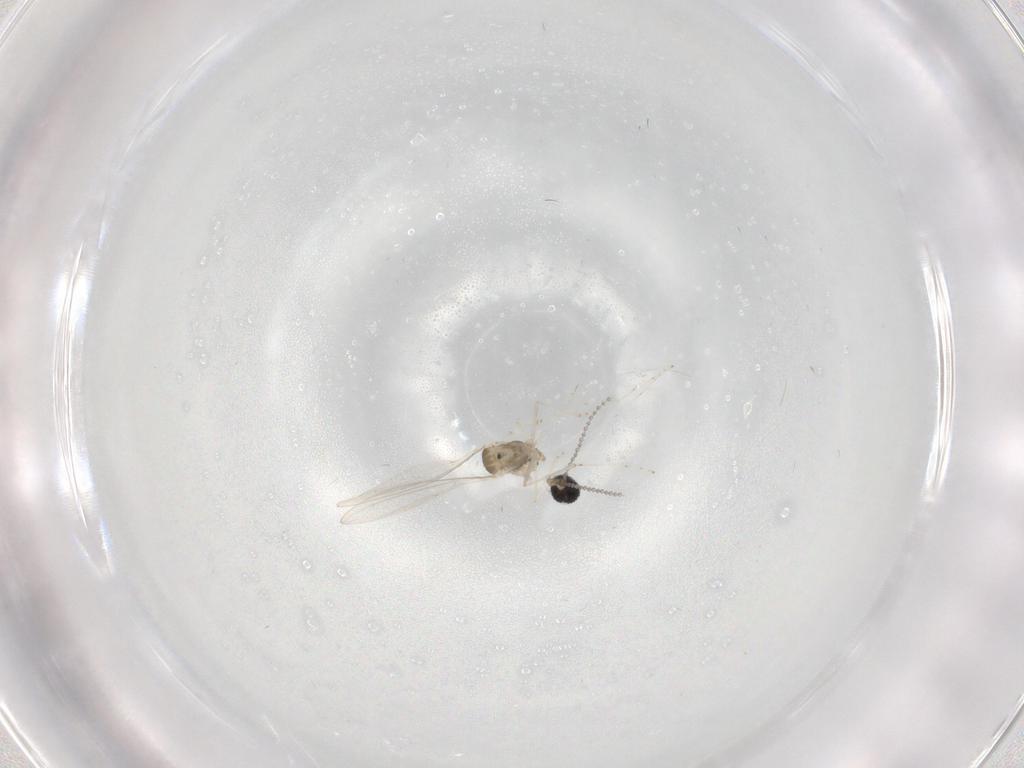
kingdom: Animalia
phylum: Arthropoda
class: Insecta
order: Diptera
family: Cecidomyiidae
